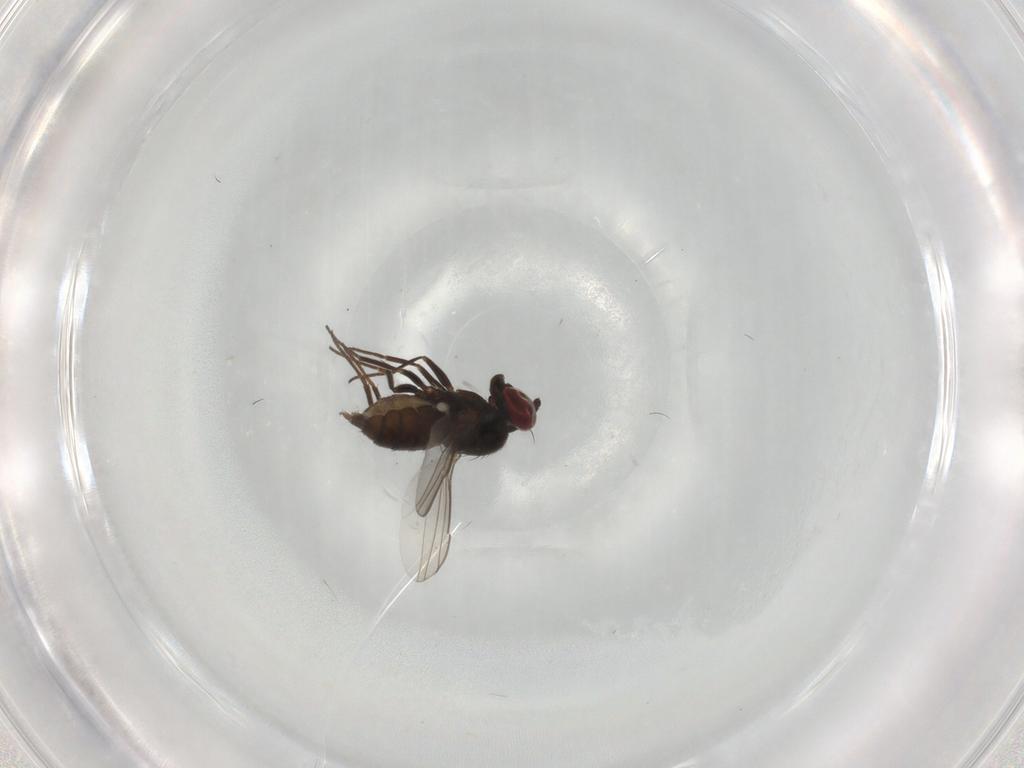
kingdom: Animalia
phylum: Arthropoda
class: Insecta
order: Diptera
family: Dolichopodidae
